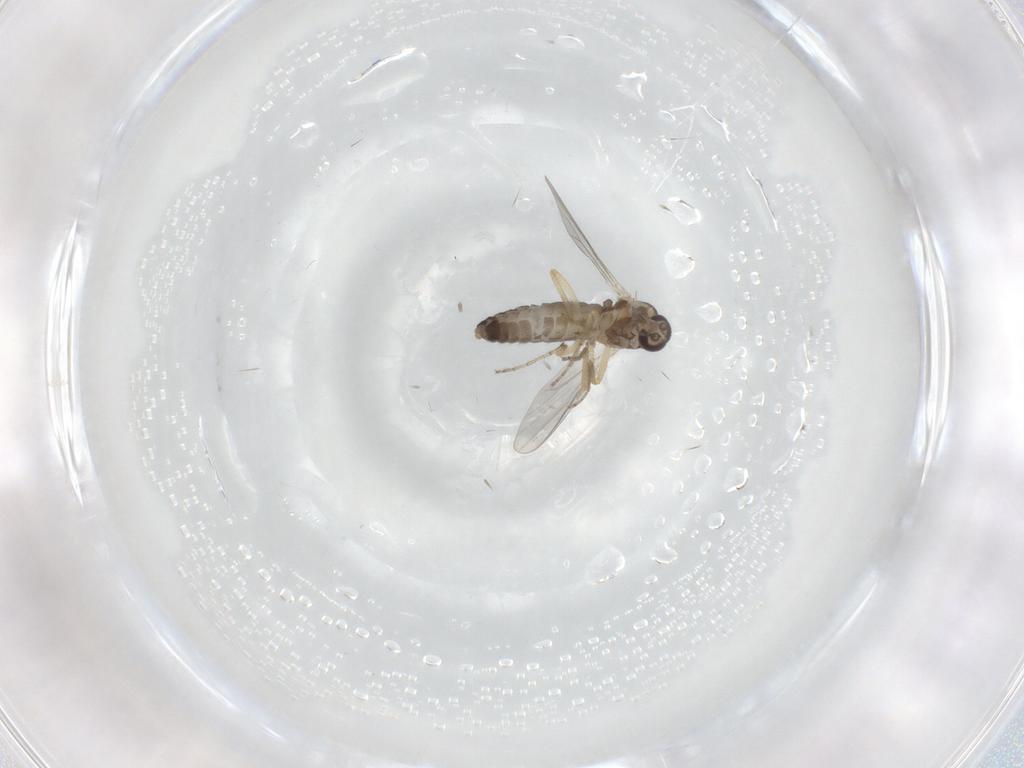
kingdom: Animalia
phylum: Arthropoda
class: Insecta
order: Diptera
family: Ceratopogonidae
